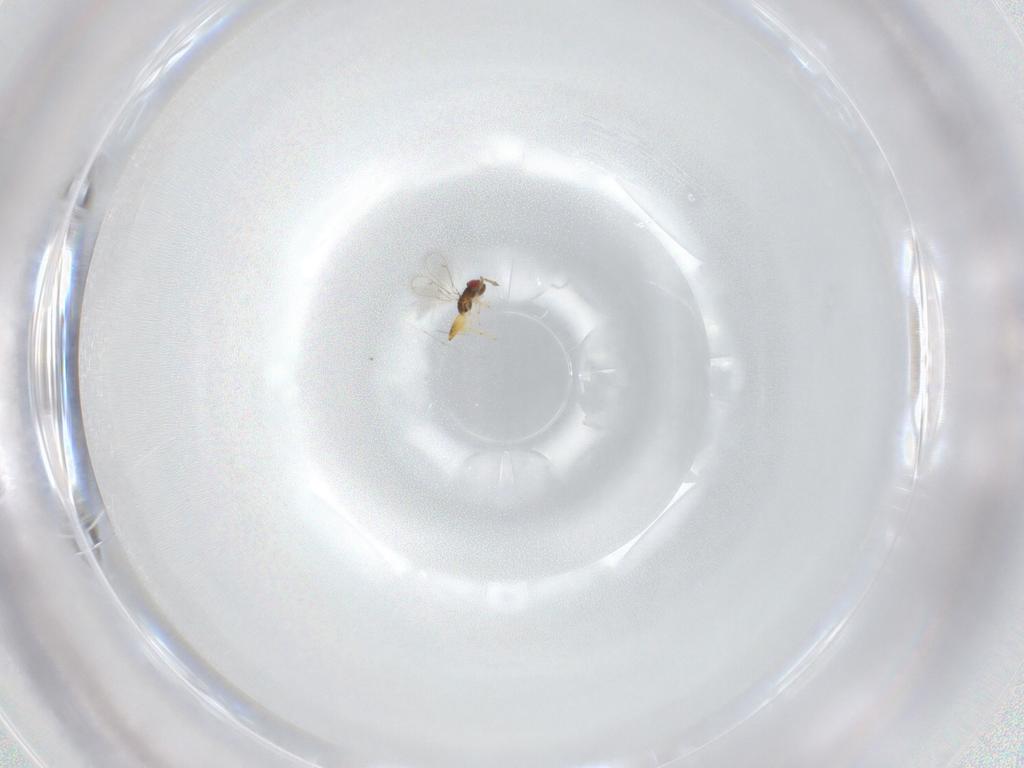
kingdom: Animalia
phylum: Arthropoda
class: Insecta
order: Hymenoptera
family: Eulophidae
